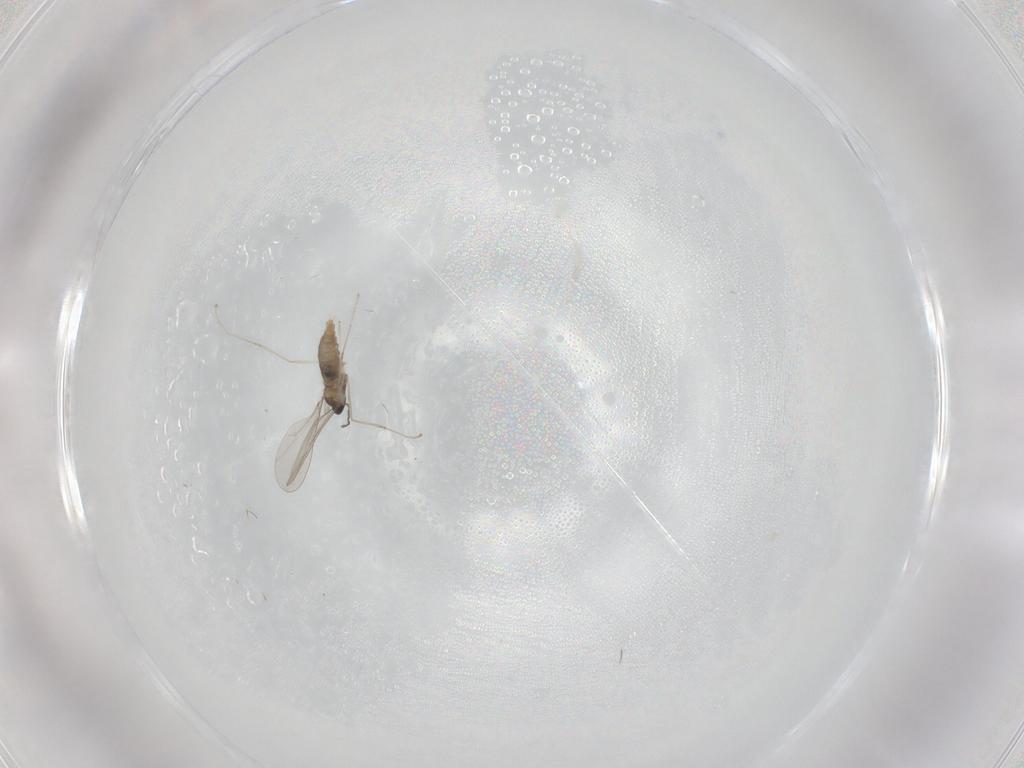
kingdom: Animalia
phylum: Arthropoda
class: Insecta
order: Diptera
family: Cecidomyiidae
